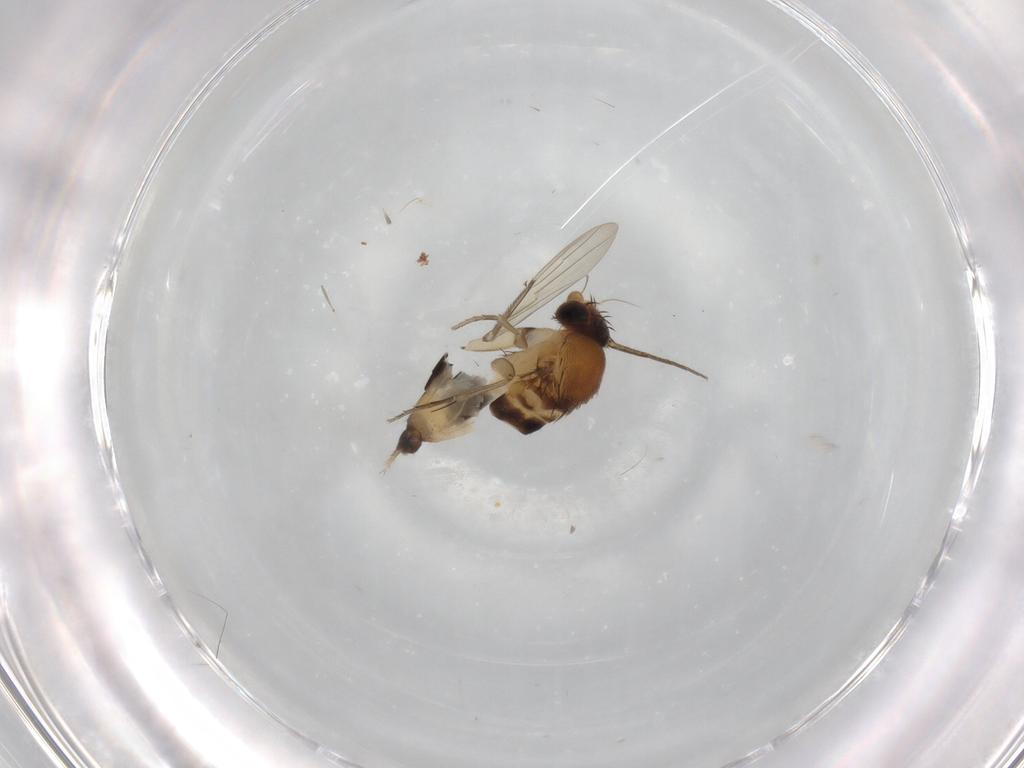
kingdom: Animalia
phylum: Arthropoda
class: Insecta
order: Diptera
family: Phoridae
